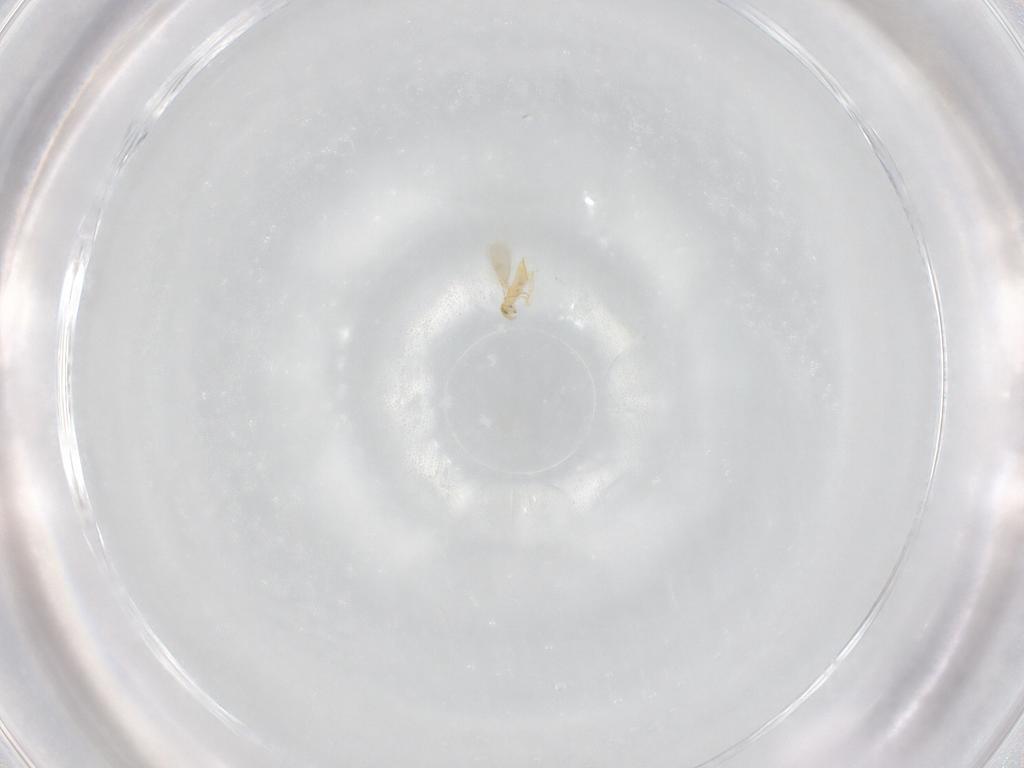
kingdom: Animalia
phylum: Arthropoda
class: Insecta
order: Hymenoptera
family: Aphelinidae
